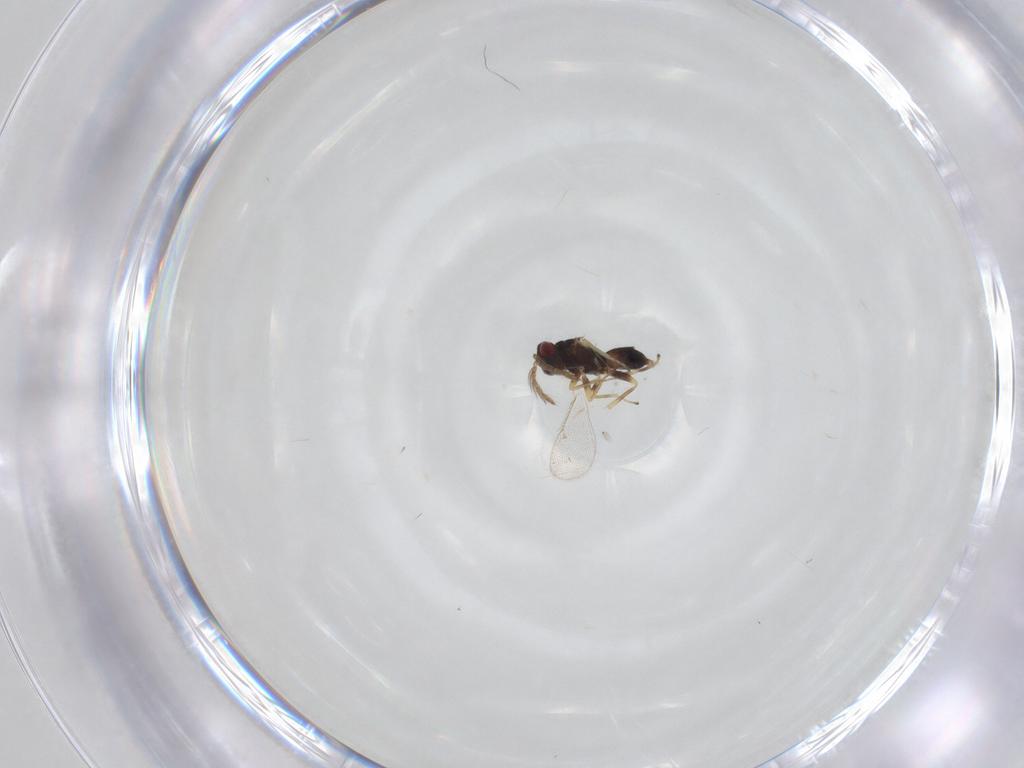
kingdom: Animalia
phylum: Arthropoda
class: Insecta
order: Hymenoptera
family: Eulophidae
